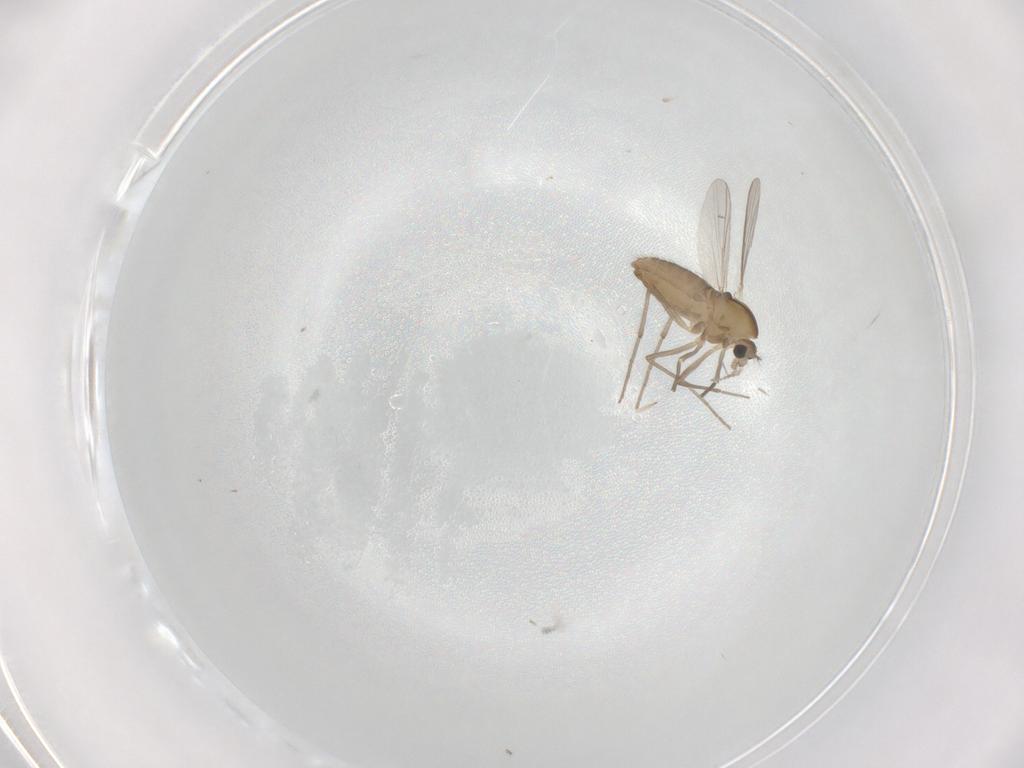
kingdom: Animalia
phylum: Arthropoda
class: Insecta
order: Diptera
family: Chironomidae
